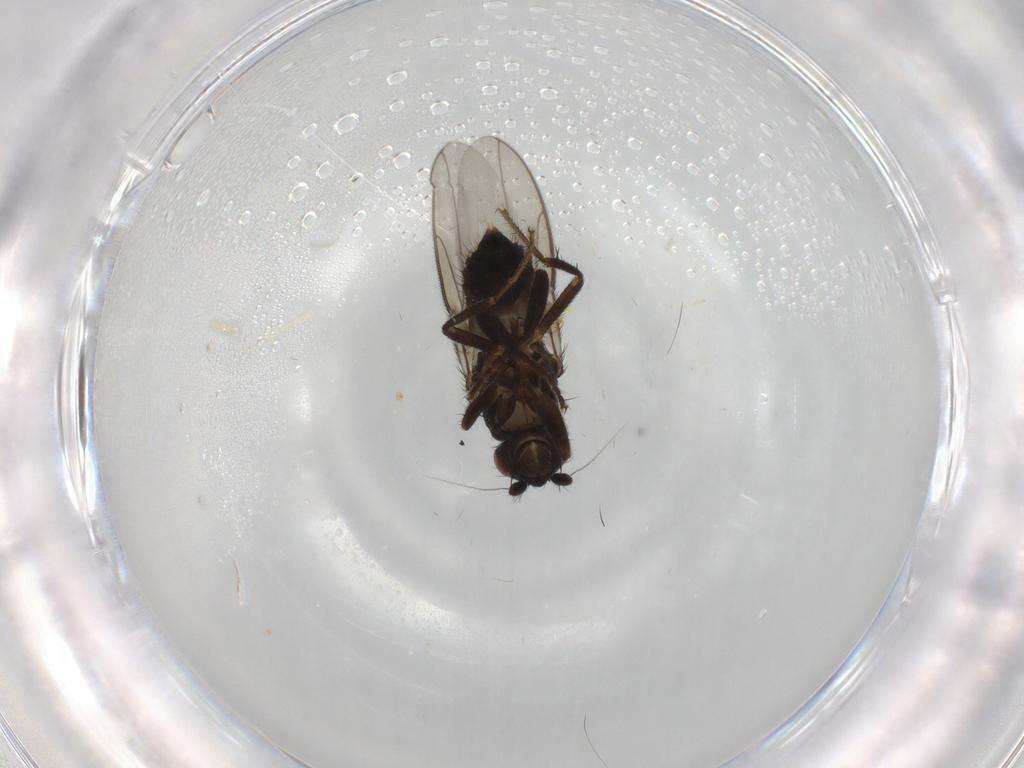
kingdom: Animalia
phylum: Arthropoda
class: Insecta
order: Diptera
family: Sphaeroceridae
